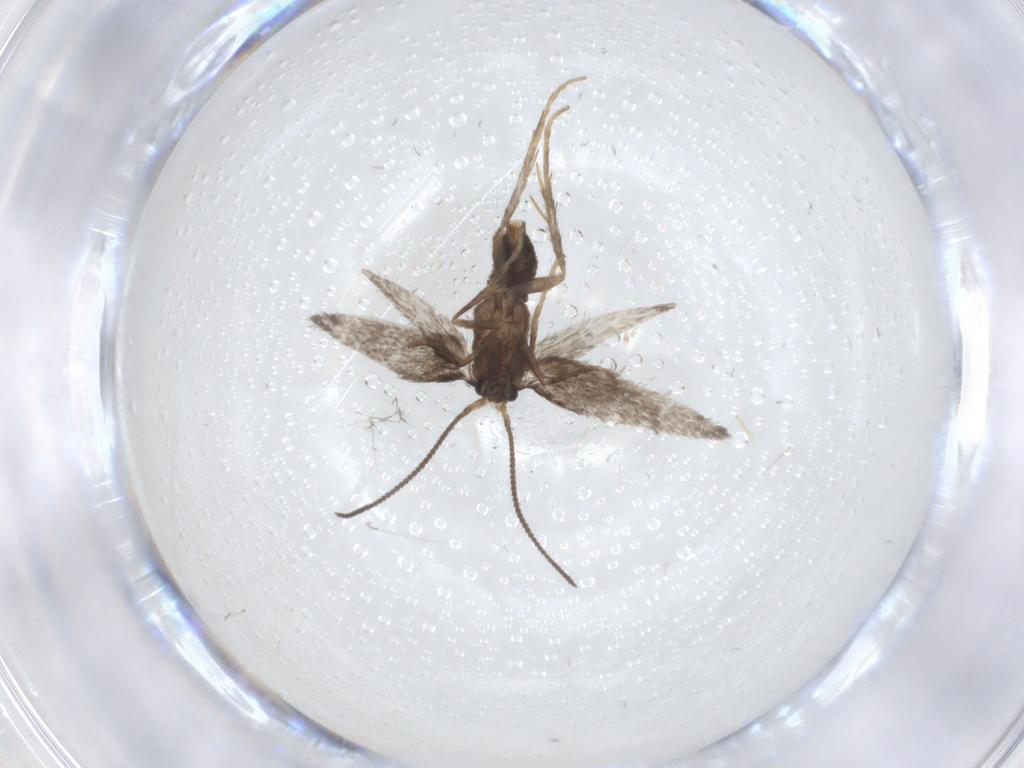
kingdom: Animalia
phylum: Arthropoda
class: Insecta
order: Lepidoptera
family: Nepticulidae
